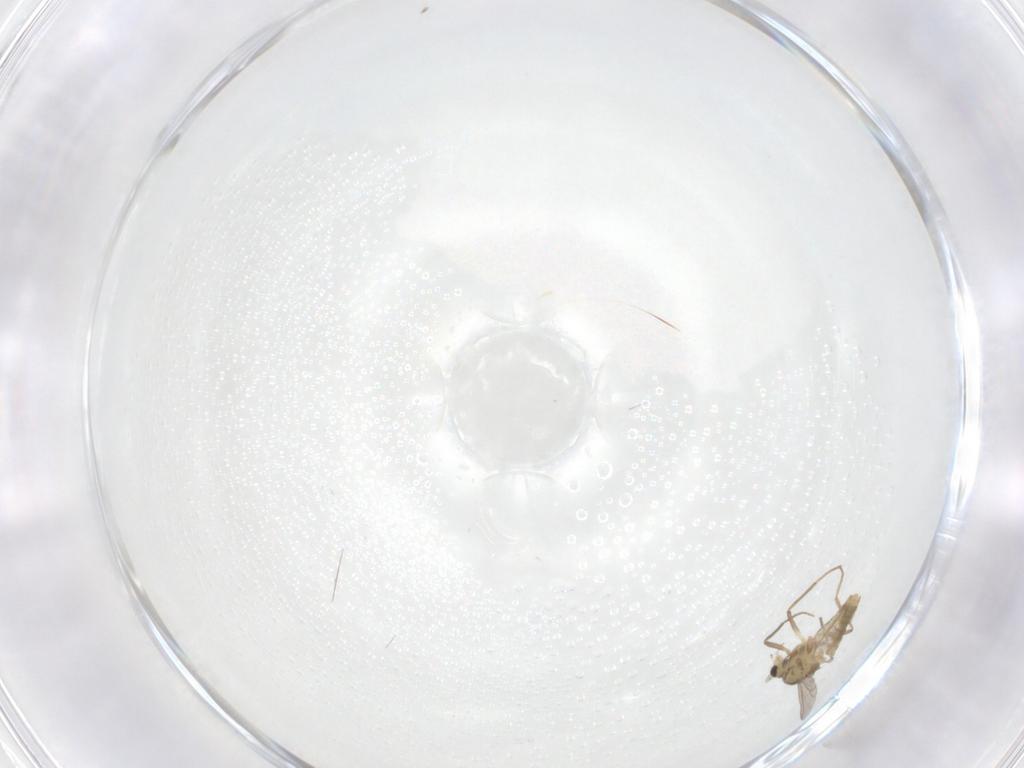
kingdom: Animalia
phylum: Arthropoda
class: Insecta
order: Diptera
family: Chironomidae
